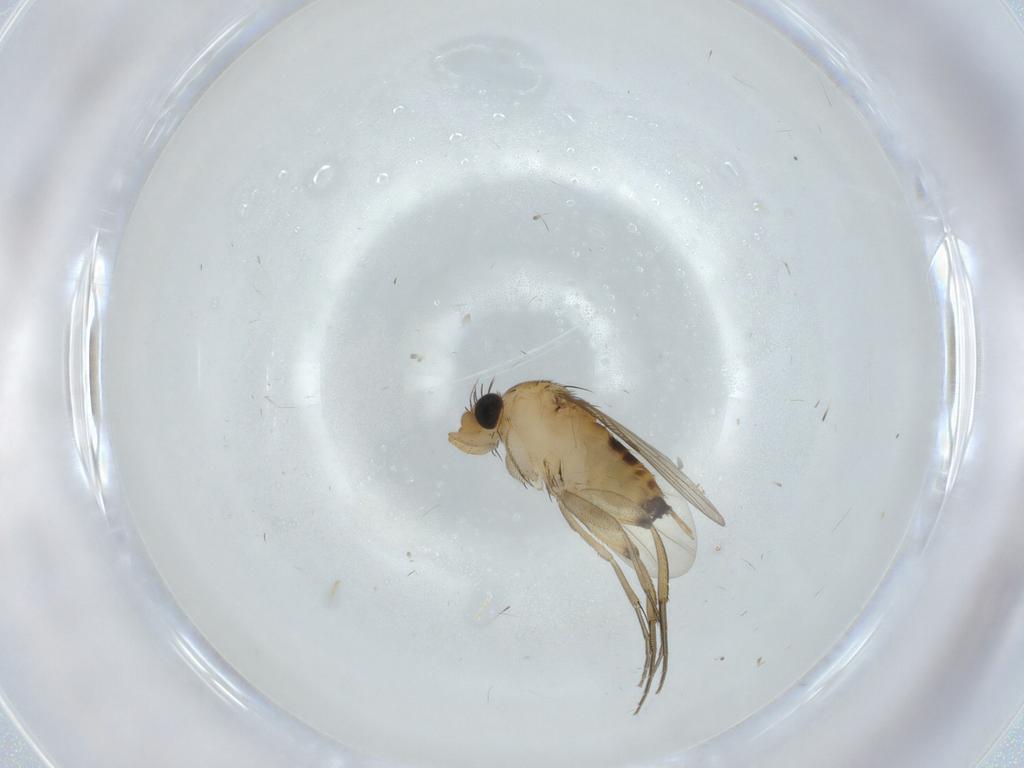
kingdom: Animalia
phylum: Arthropoda
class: Insecta
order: Diptera
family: Phoridae
